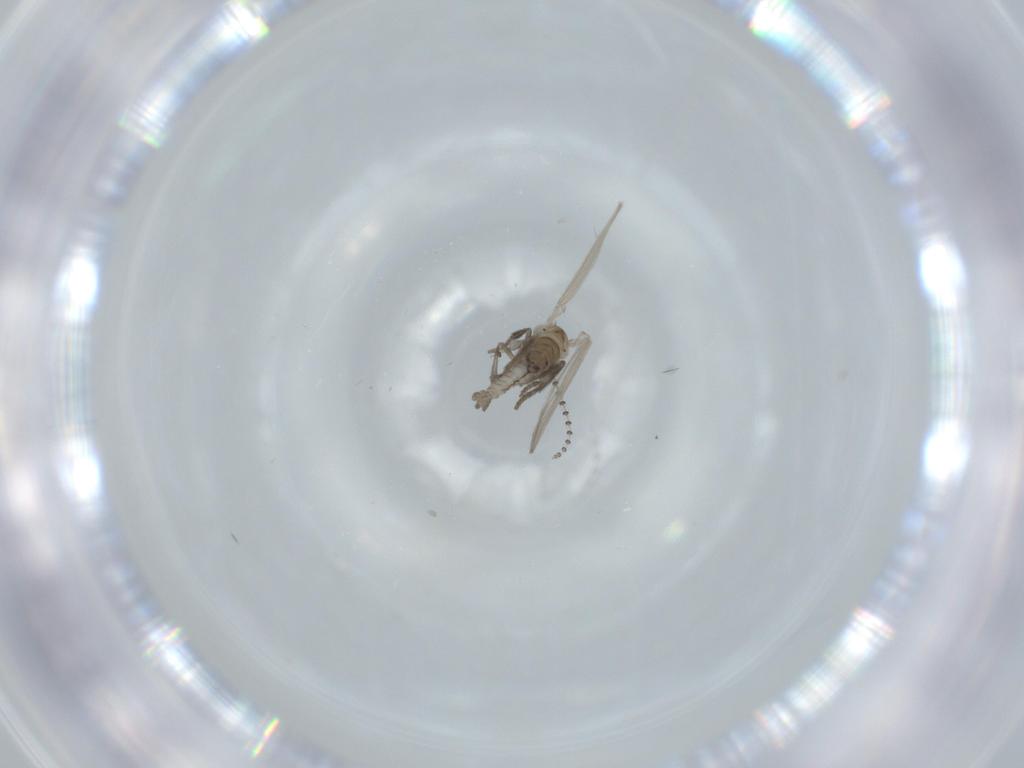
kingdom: Animalia
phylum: Arthropoda
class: Insecta
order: Diptera
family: Psychodidae
